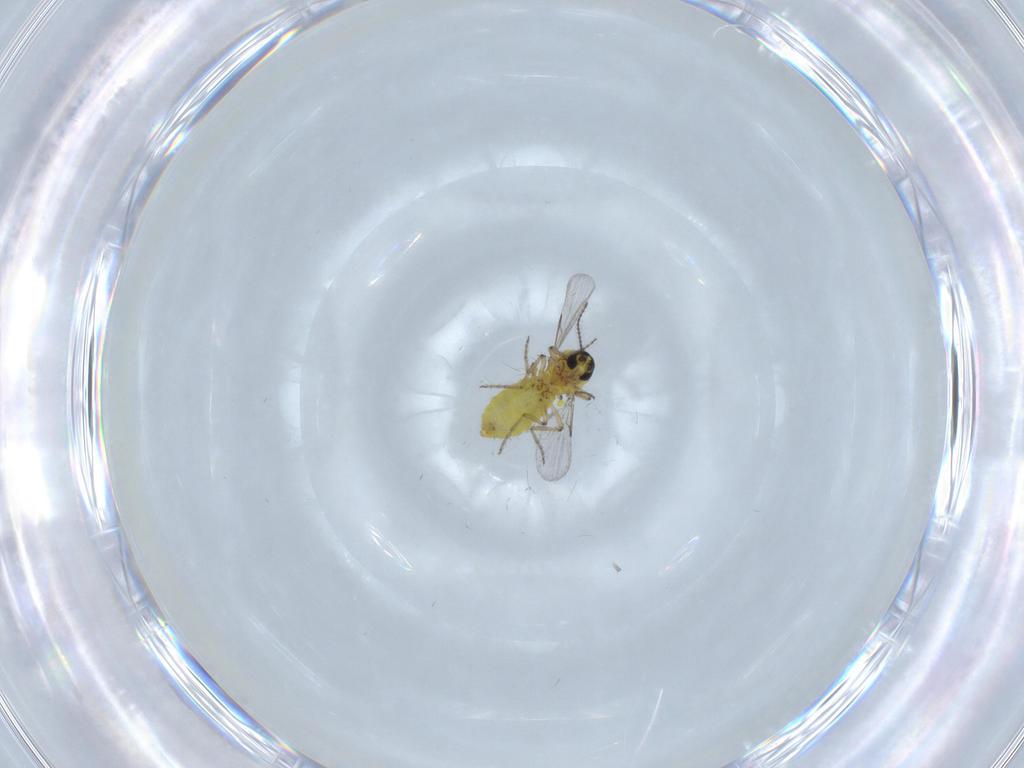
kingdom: Animalia
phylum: Arthropoda
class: Insecta
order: Diptera
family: Ceratopogonidae
